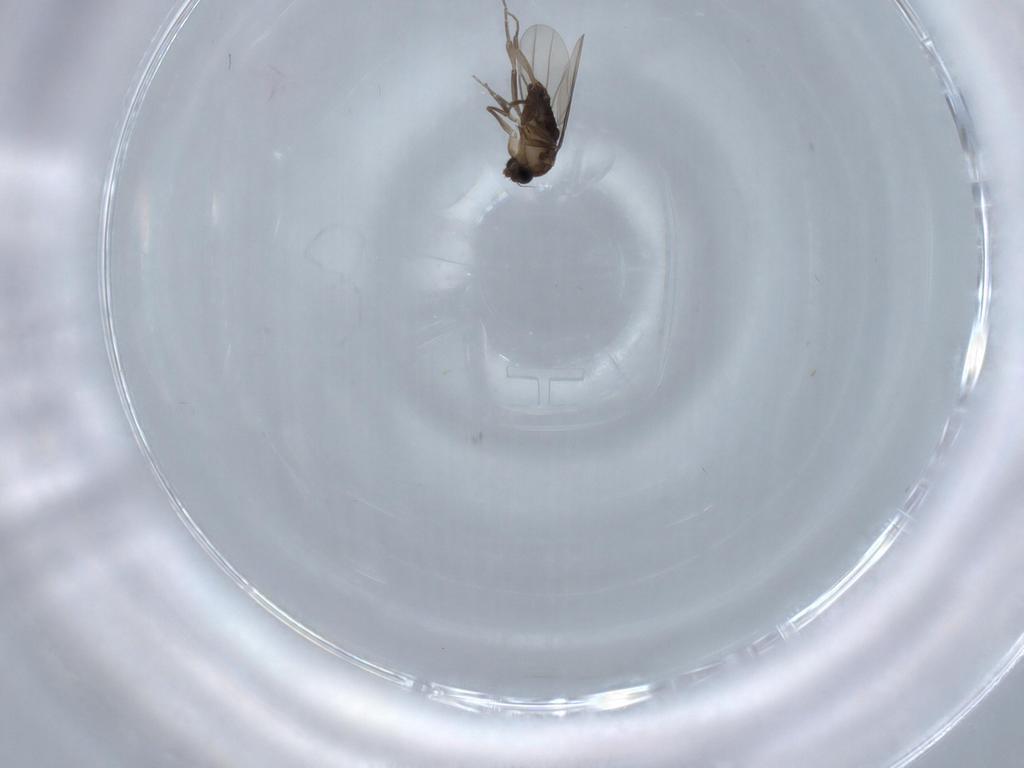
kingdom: Animalia
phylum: Arthropoda
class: Insecta
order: Diptera
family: Phoridae
